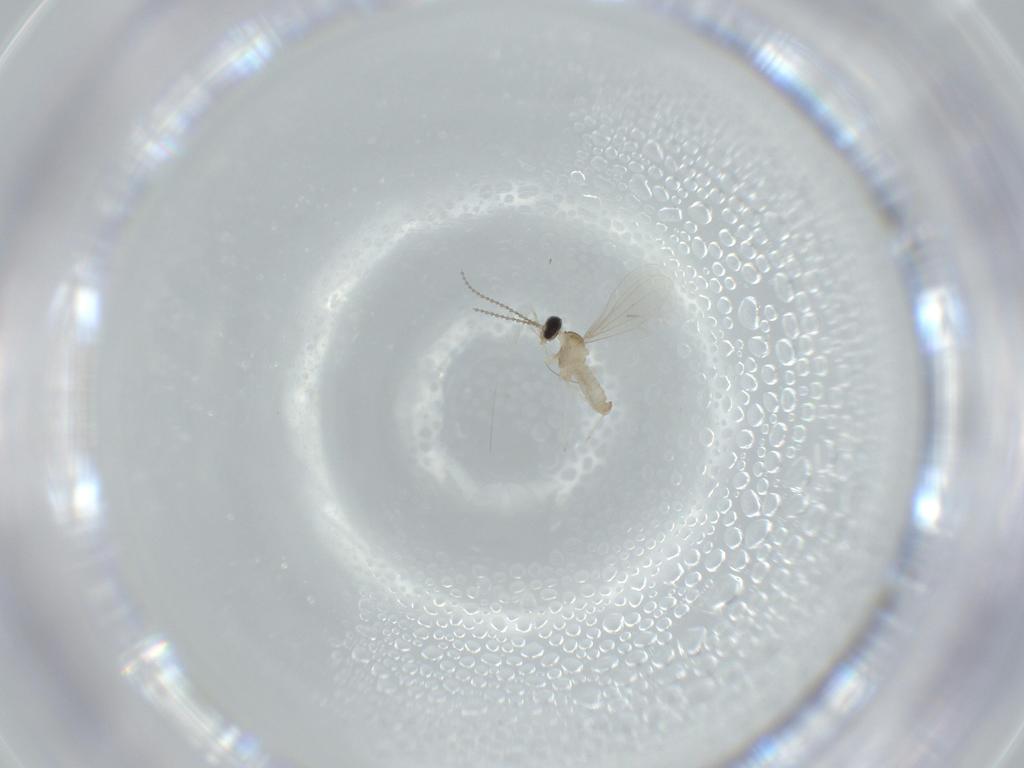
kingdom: Animalia
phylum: Arthropoda
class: Insecta
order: Diptera
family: Cecidomyiidae
